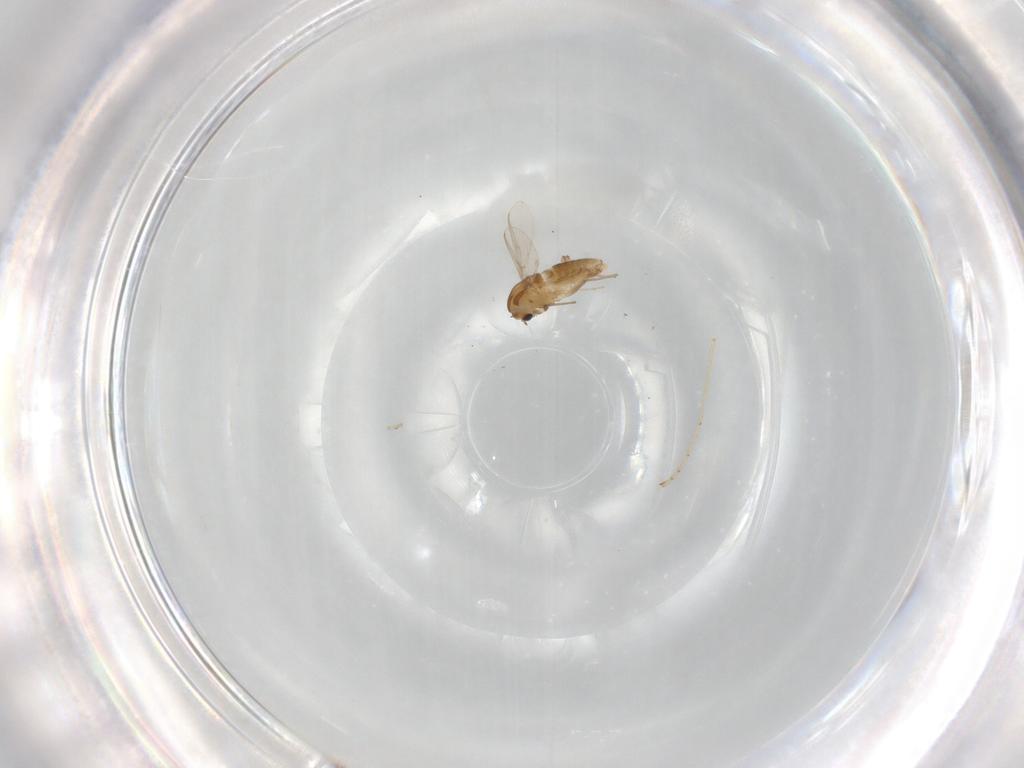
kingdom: Animalia
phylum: Arthropoda
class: Insecta
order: Diptera
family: Chironomidae
